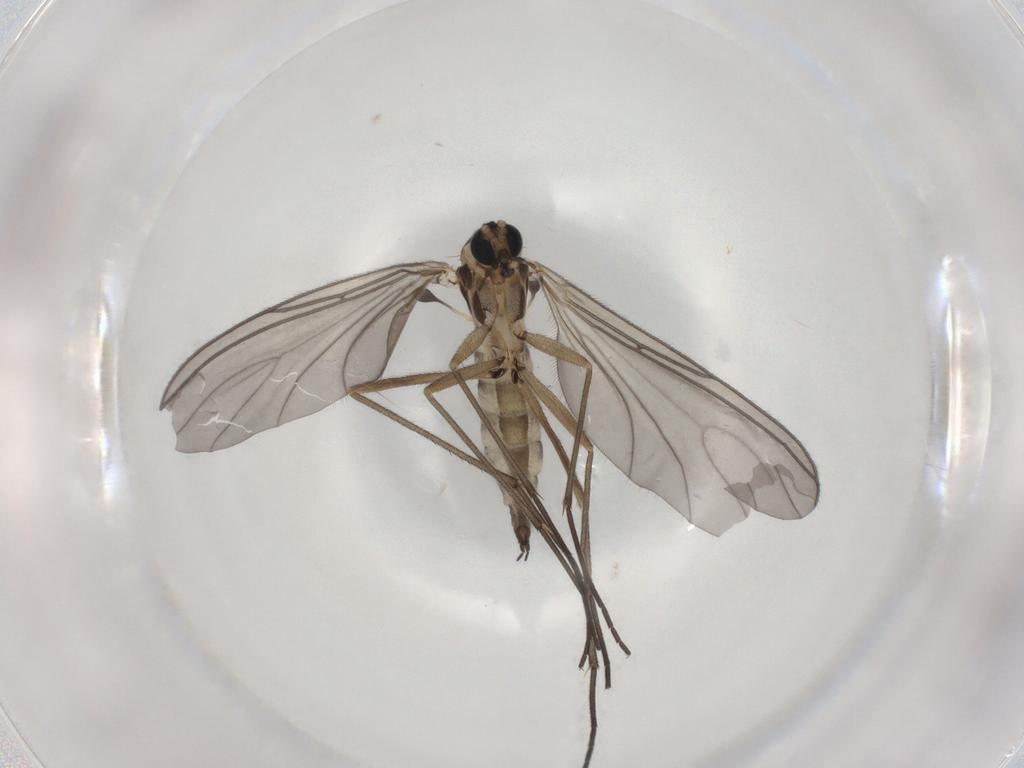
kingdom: Animalia
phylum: Arthropoda
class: Insecta
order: Diptera
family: Sciaridae
